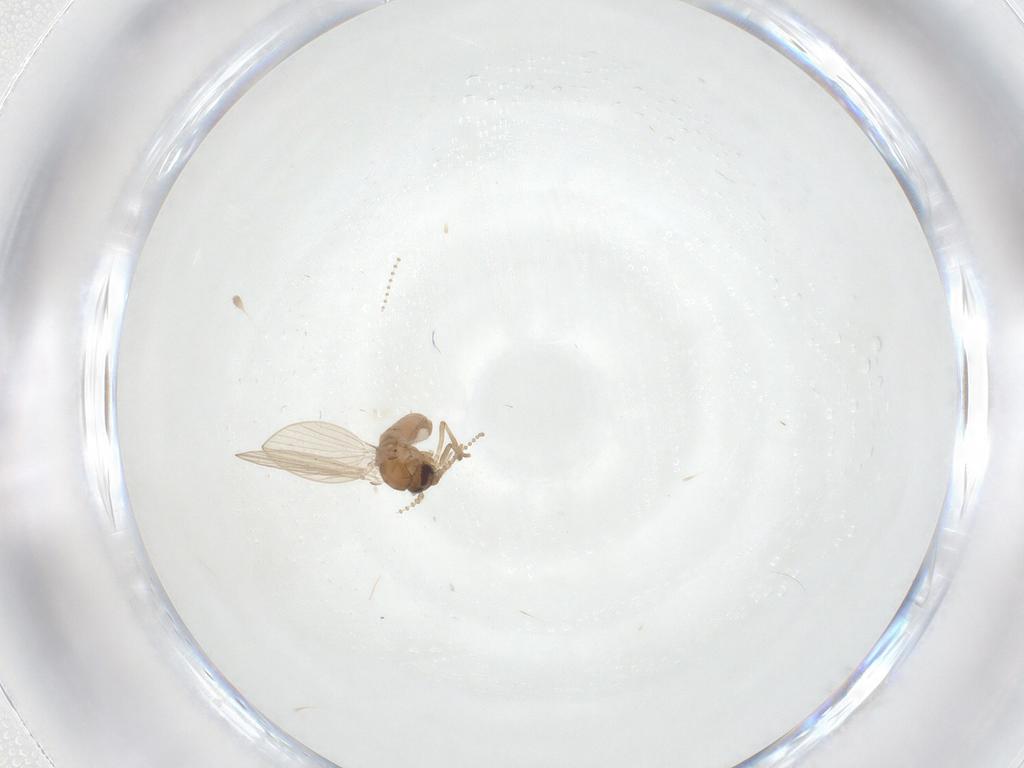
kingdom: Animalia
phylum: Arthropoda
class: Insecta
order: Diptera
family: Psychodidae
